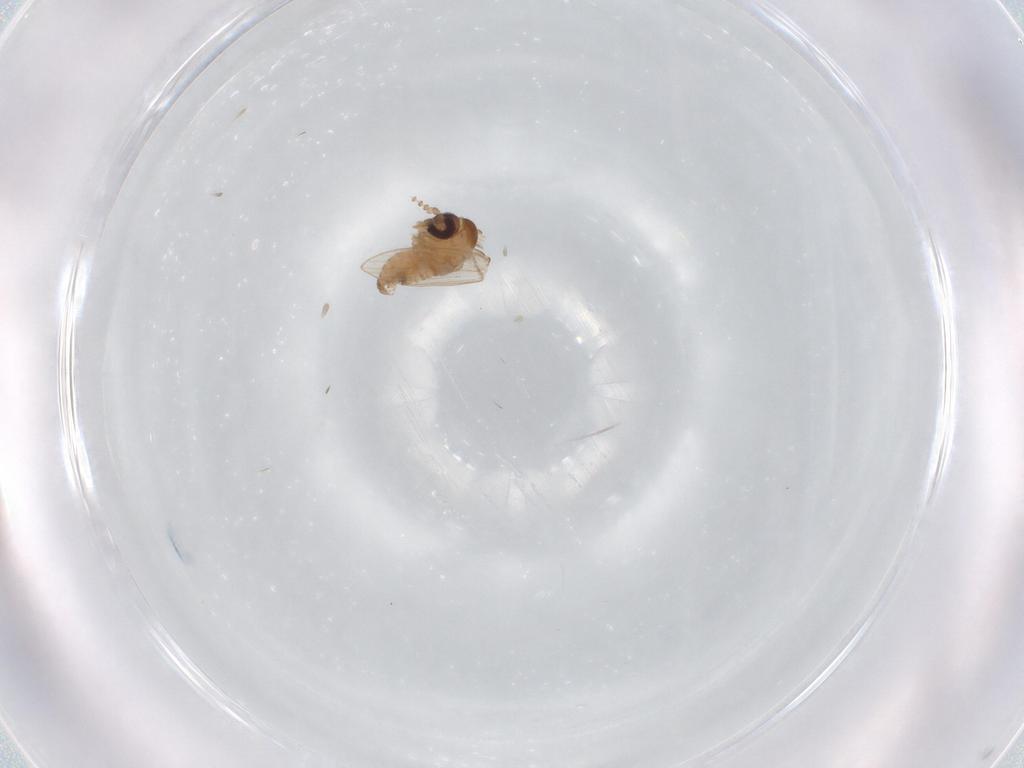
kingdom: Animalia
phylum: Arthropoda
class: Insecta
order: Diptera
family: Psychodidae
